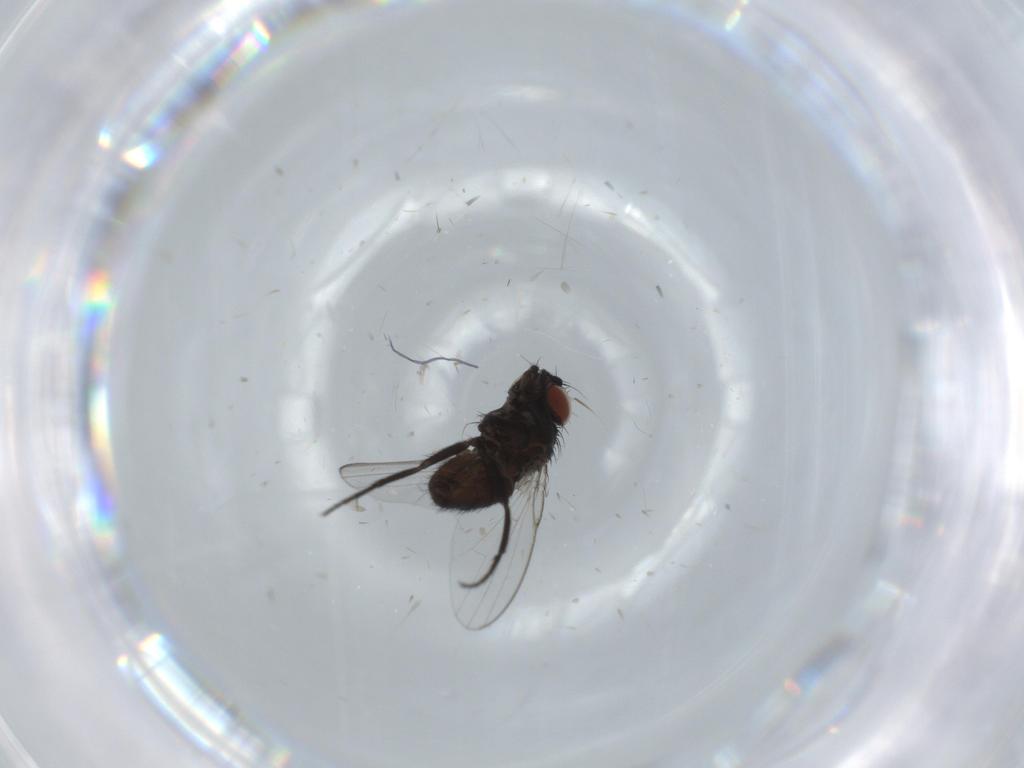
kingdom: Animalia
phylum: Arthropoda
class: Insecta
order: Diptera
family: Milichiidae
